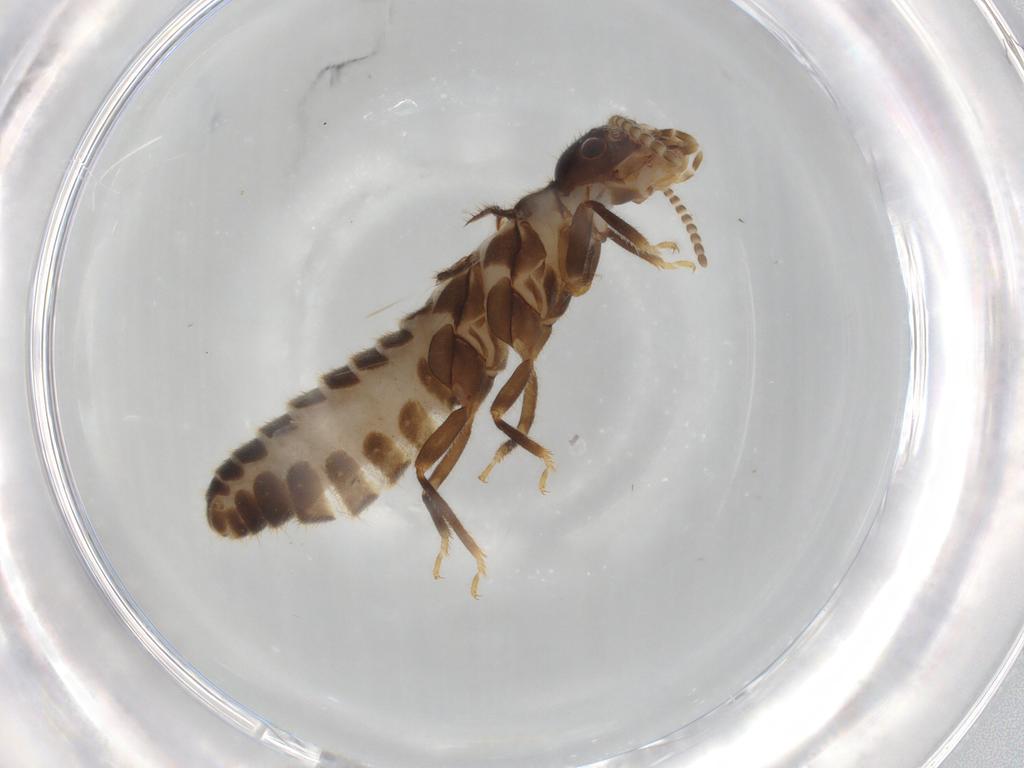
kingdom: Animalia
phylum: Arthropoda
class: Insecta
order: Blattodea
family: Termitidae
